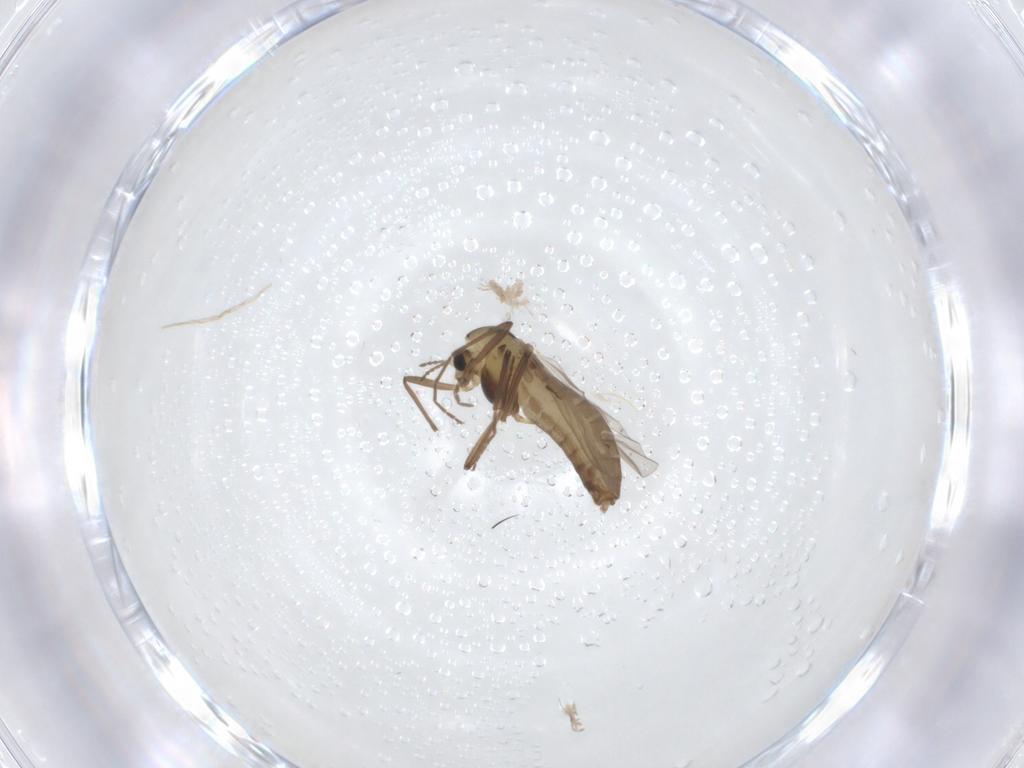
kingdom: Animalia
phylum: Arthropoda
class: Insecta
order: Diptera
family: Chironomidae
